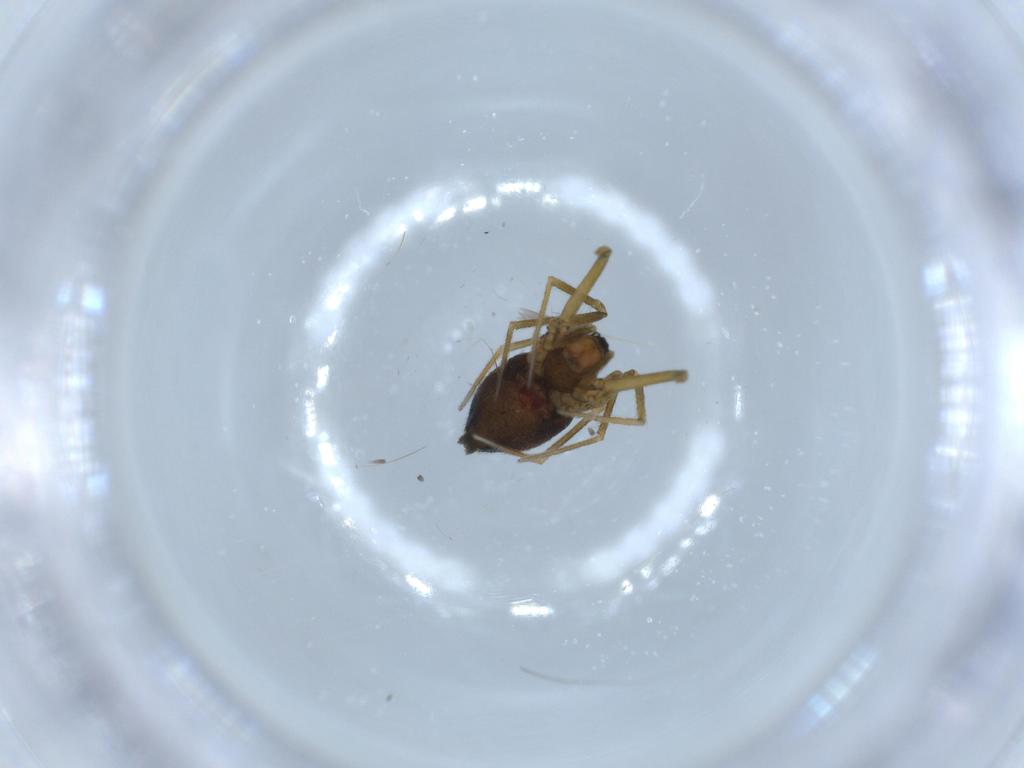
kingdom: Animalia
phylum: Arthropoda
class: Arachnida
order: Araneae
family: Linyphiidae
